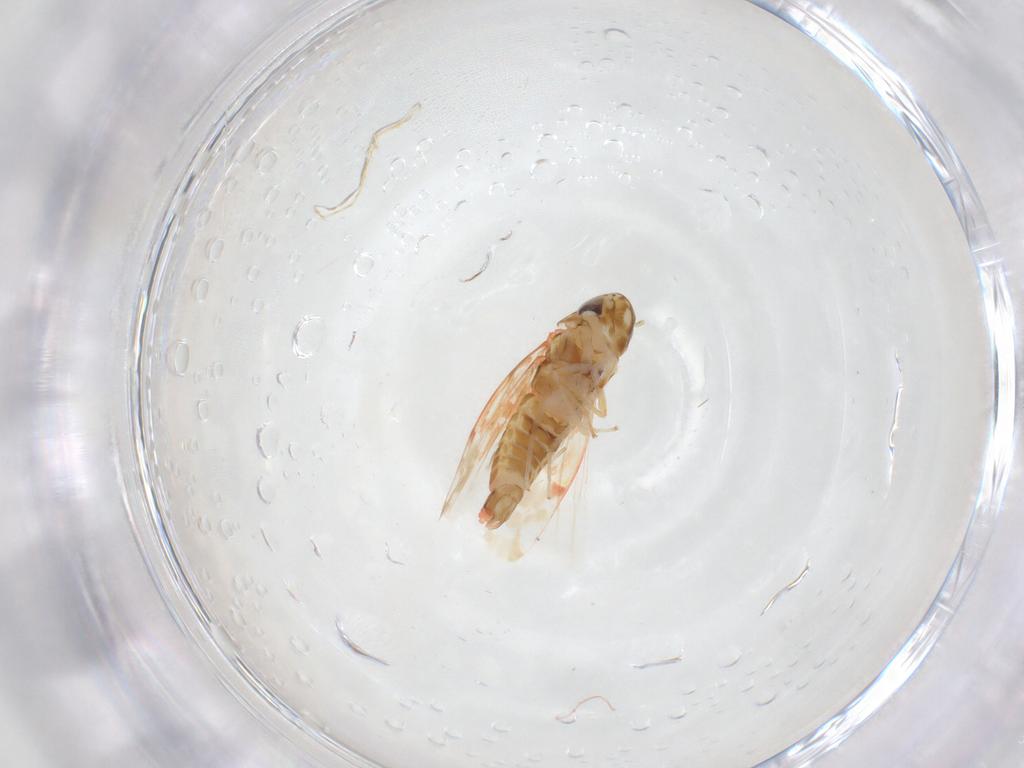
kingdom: Animalia
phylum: Arthropoda
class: Insecta
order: Hemiptera
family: Cicadellidae
